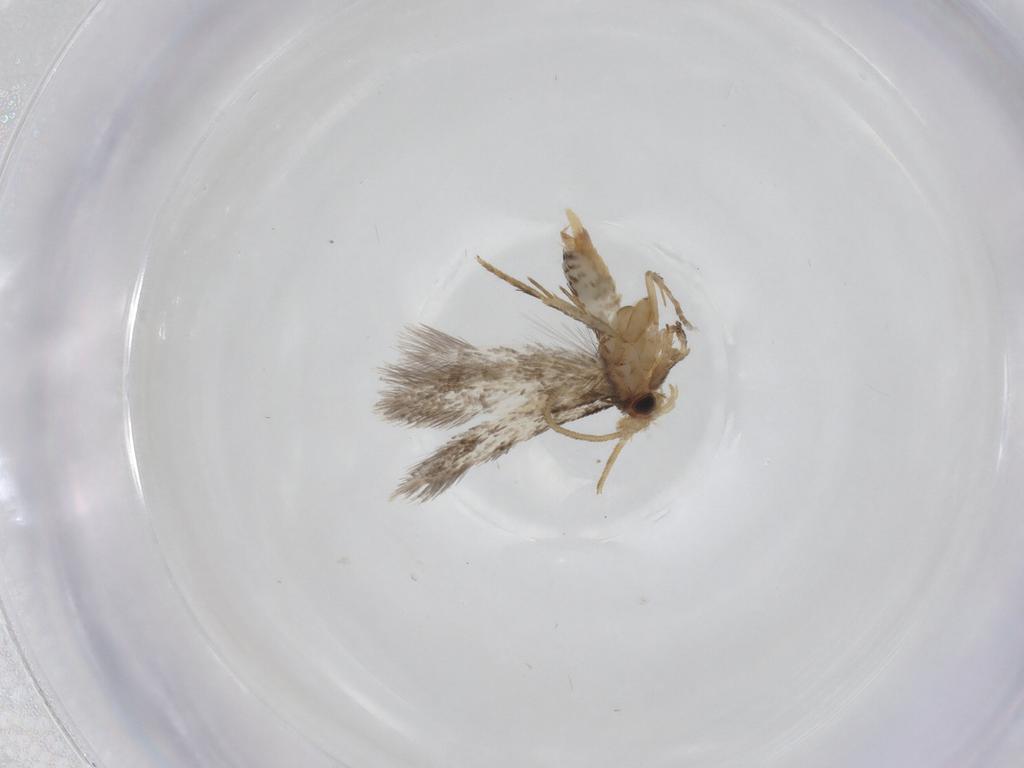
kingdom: Animalia
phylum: Arthropoda
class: Insecta
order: Lepidoptera
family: Nepticulidae
